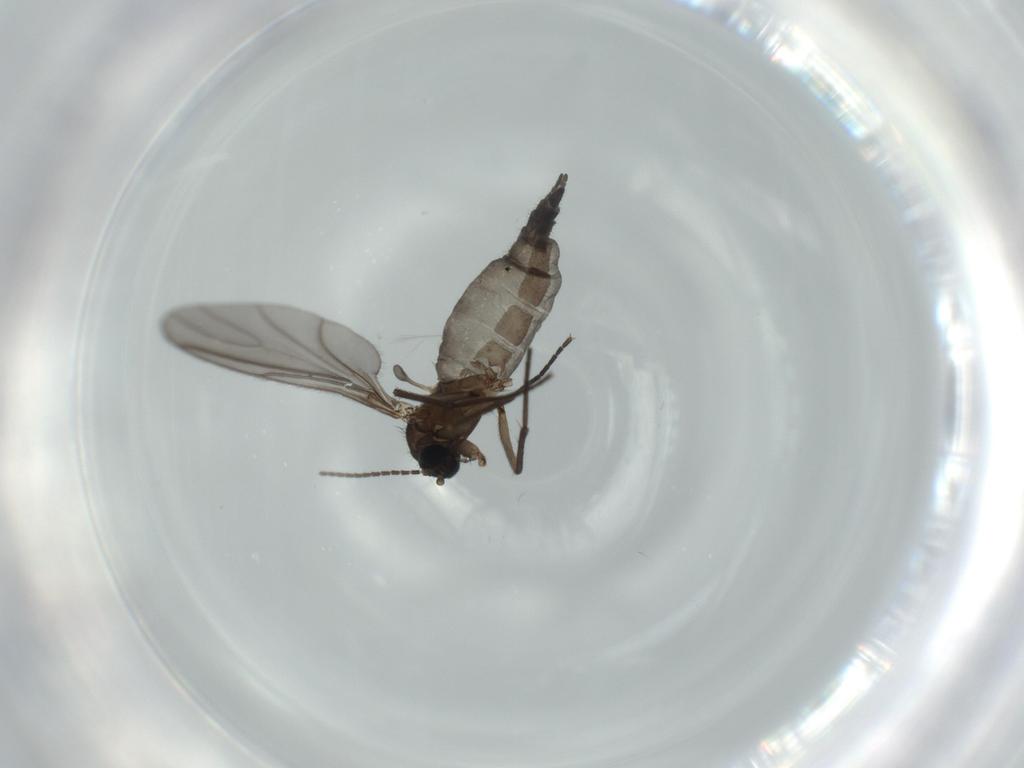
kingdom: Animalia
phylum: Arthropoda
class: Insecta
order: Diptera
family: Sciaridae
